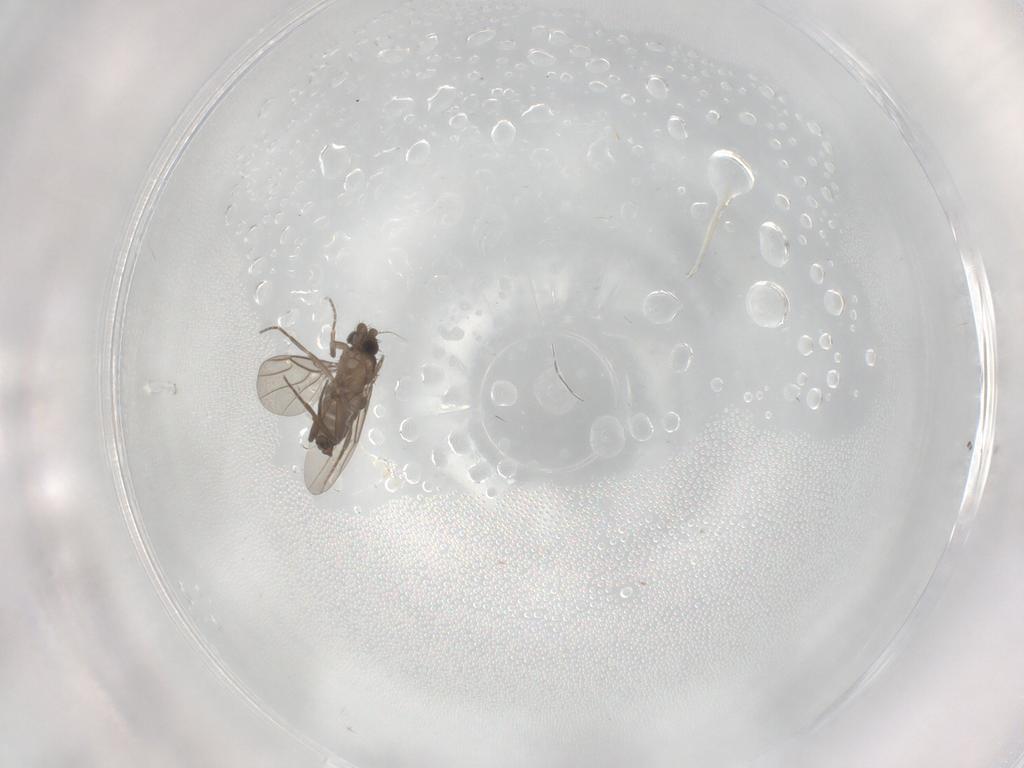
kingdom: Animalia
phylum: Arthropoda
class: Insecta
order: Diptera
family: Phoridae
